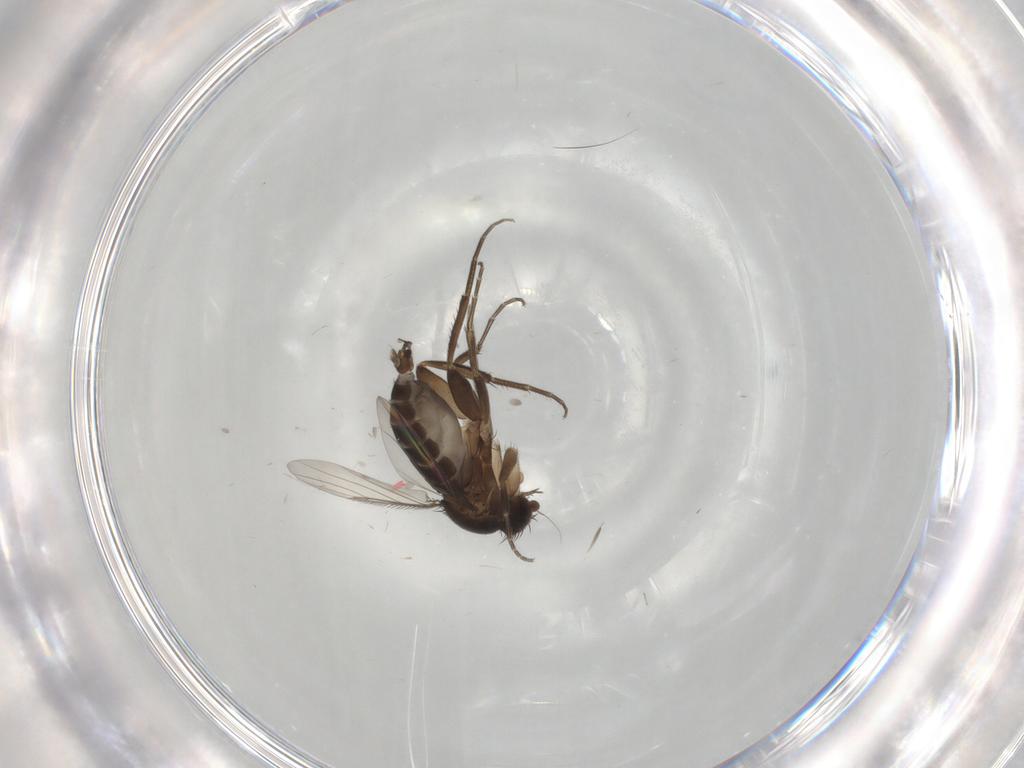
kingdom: Animalia
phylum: Arthropoda
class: Insecta
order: Diptera
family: Phoridae
